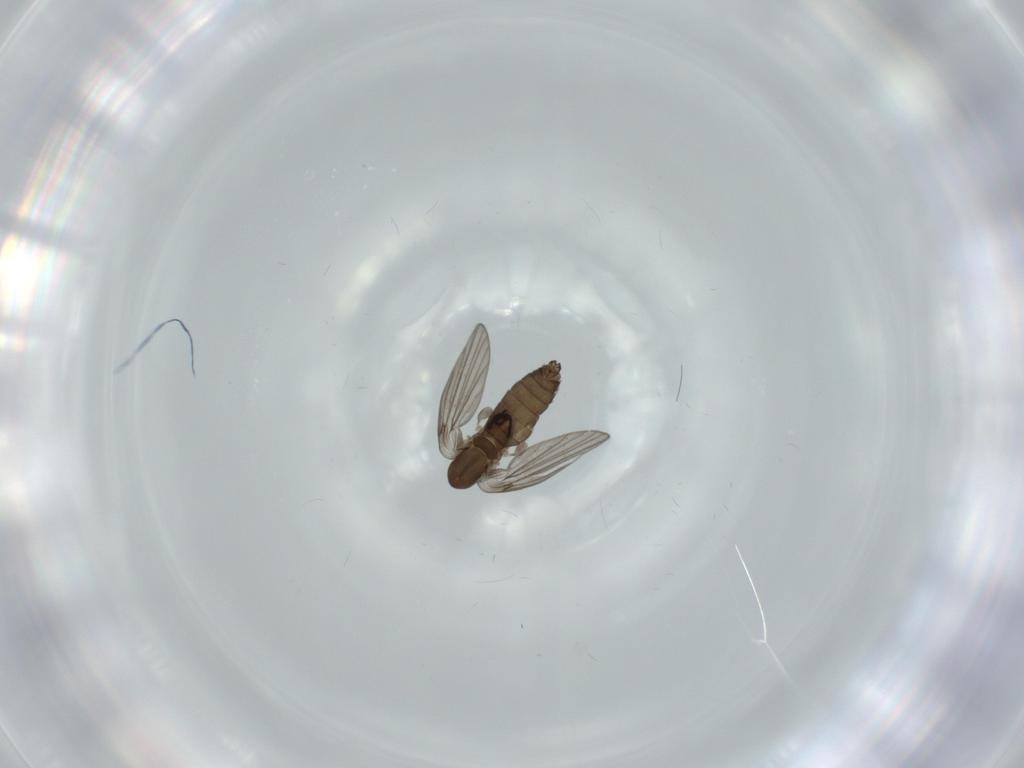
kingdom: Animalia
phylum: Arthropoda
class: Insecta
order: Diptera
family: Psychodidae
